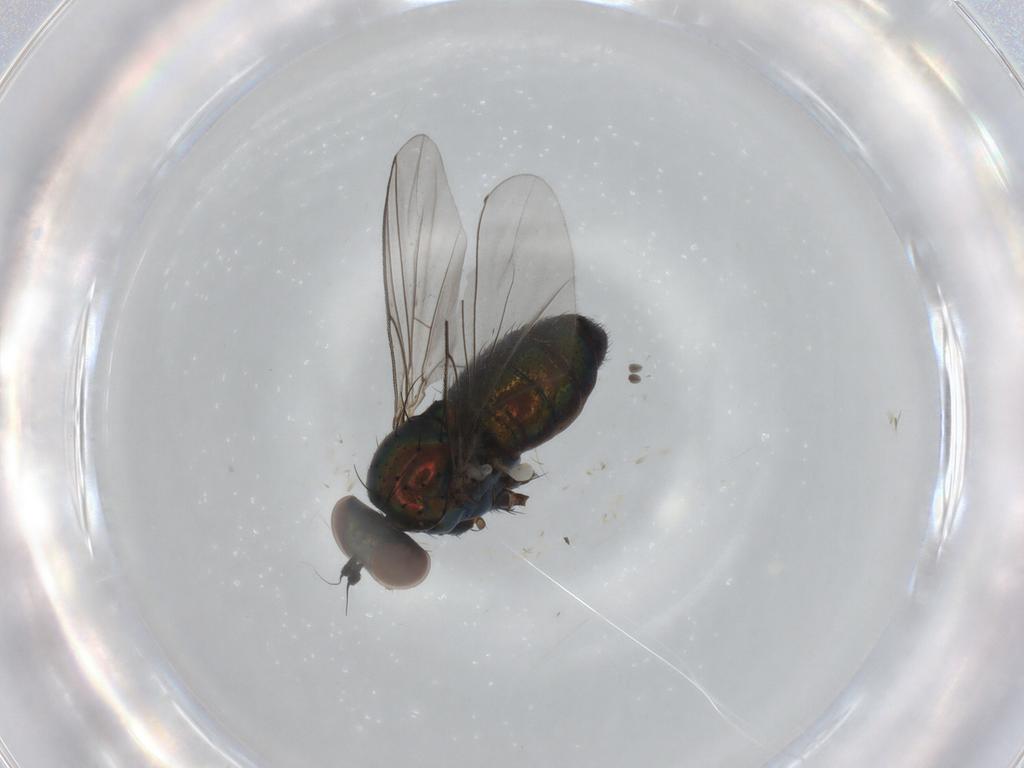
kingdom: Animalia
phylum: Arthropoda
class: Insecta
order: Diptera
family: Dolichopodidae
